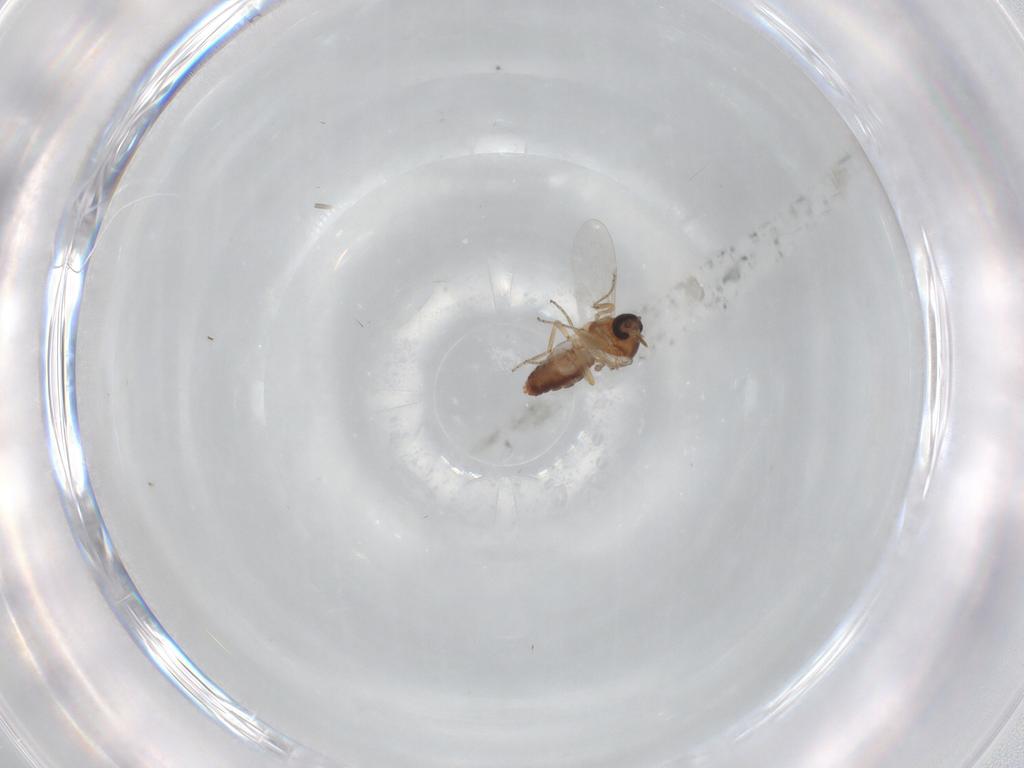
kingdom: Animalia
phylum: Arthropoda
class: Insecta
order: Diptera
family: Ceratopogonidae
